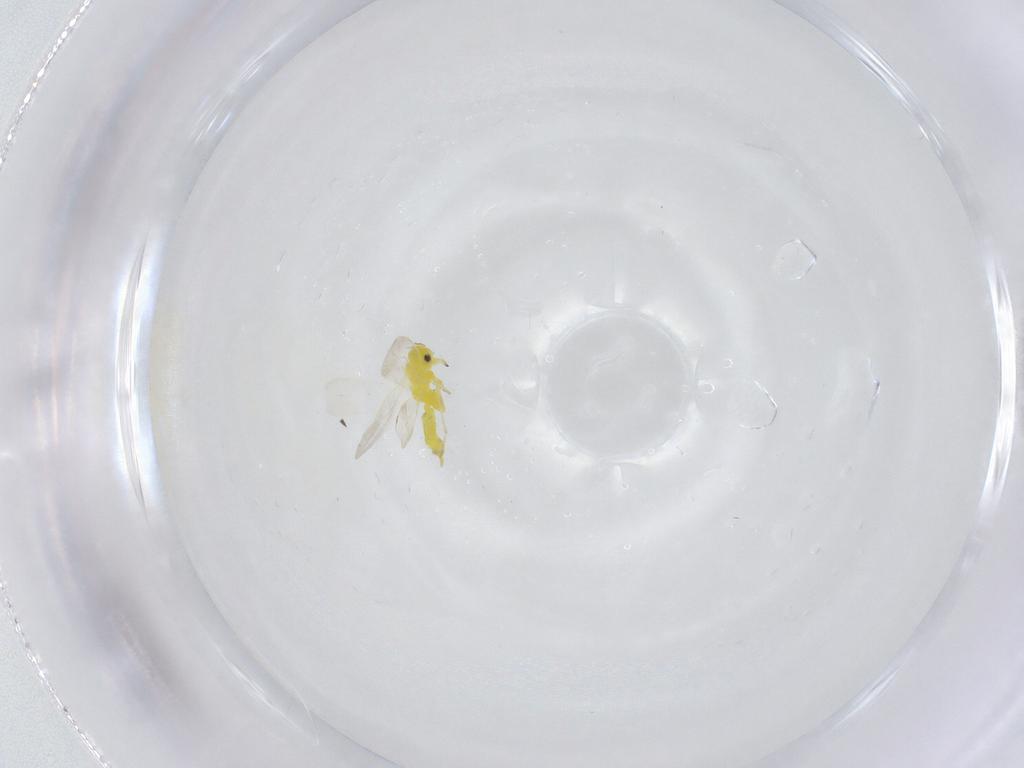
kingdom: Animalia
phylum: Arthropoda
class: Insecta
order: Hemiptera
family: Aleyrodidae
